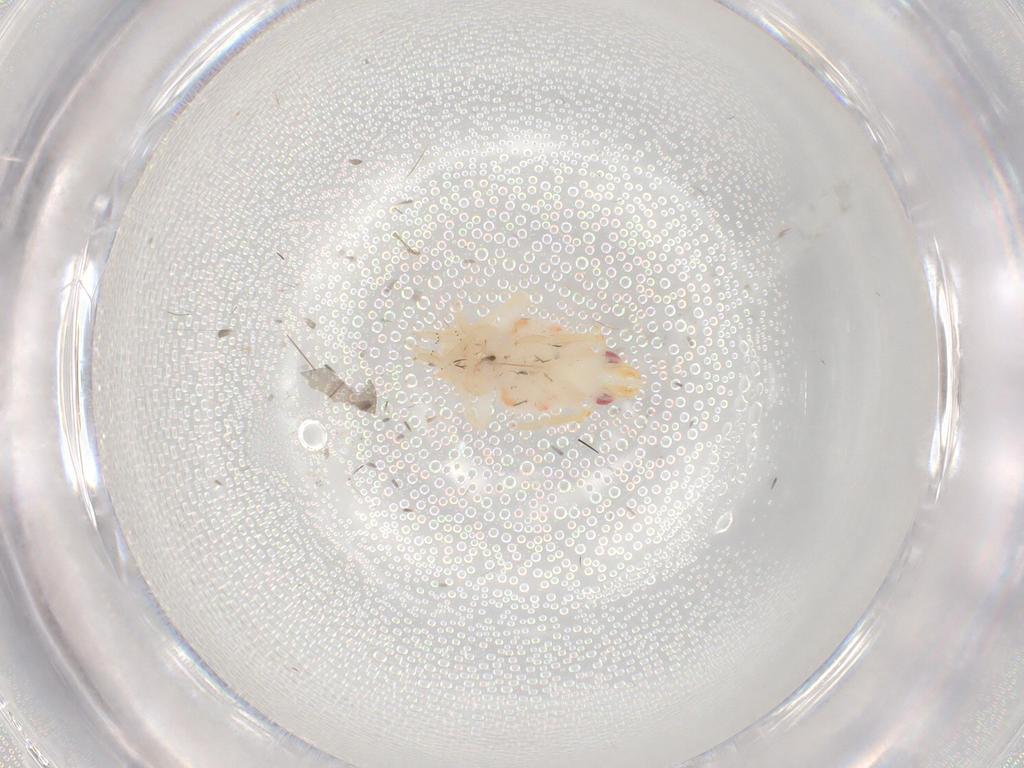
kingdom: Animalia
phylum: Arthropoda
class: Insecta
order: Hemiptera
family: Flatidae
